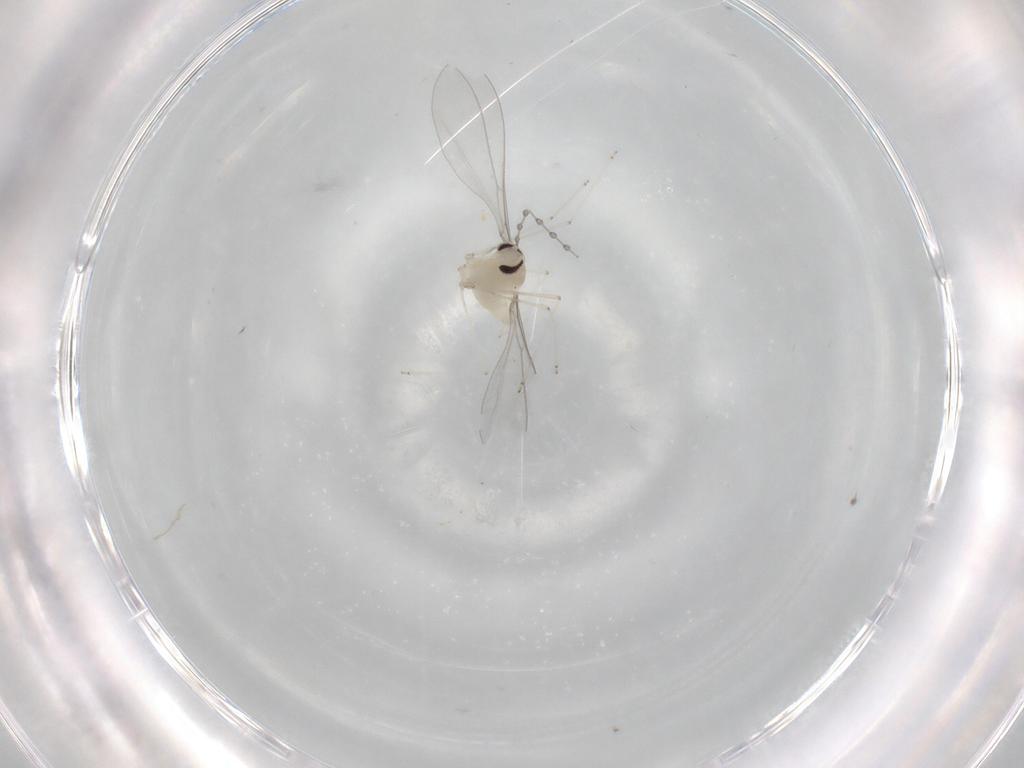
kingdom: Animalia
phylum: Arthropoda
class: Insecta
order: Diptera
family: Cecidomyiidae
